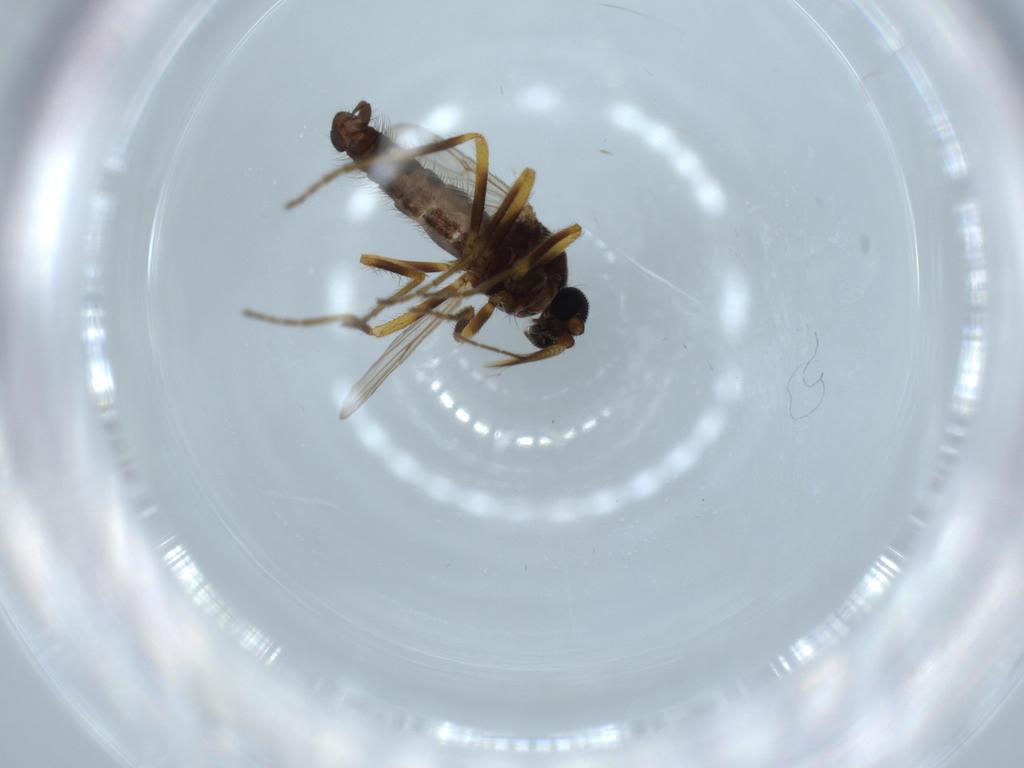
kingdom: Animalia
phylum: Arthropoda
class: Insecta
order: Diptera
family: Ceratopogonidae
